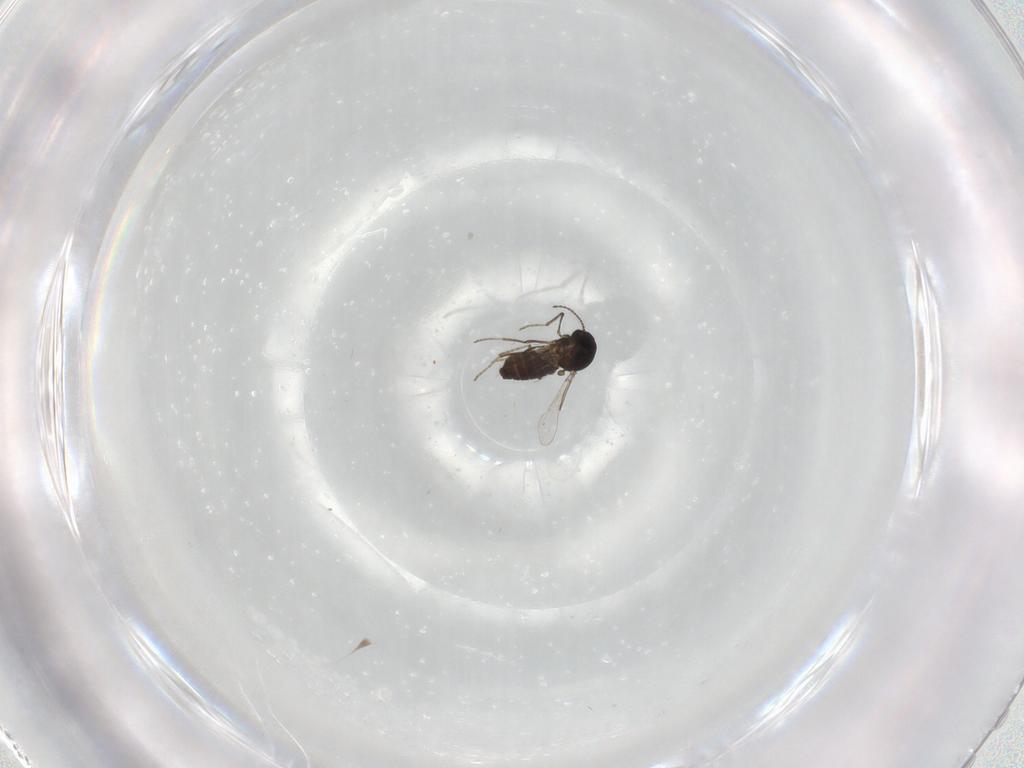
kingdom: Animalia
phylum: Arthropoda
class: Insecta
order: Diptera
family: Ceratopogonidae
